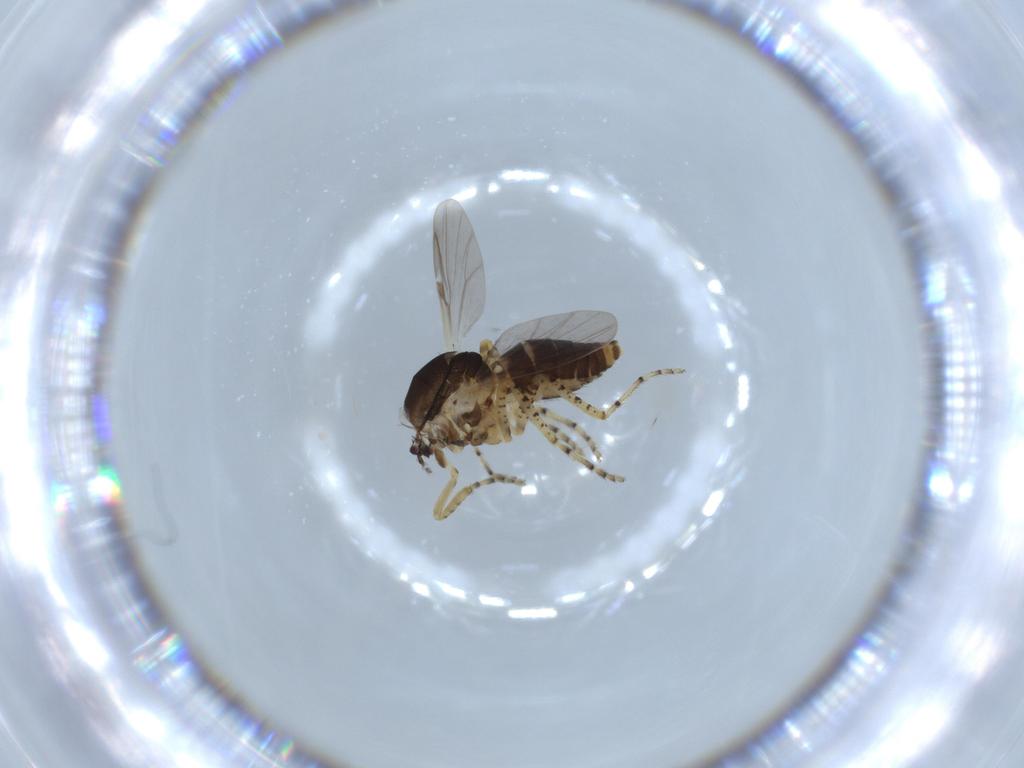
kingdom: Animalia
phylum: Arthropoda
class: Insecta
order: Diptera
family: Ceratopogonidae
